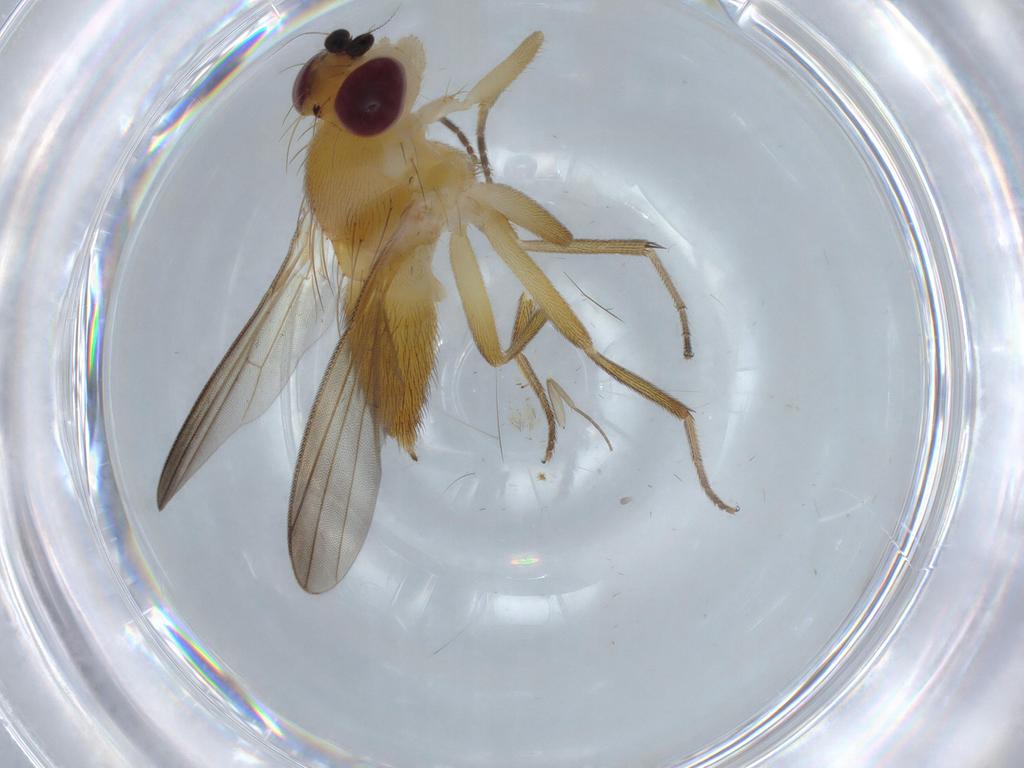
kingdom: Animalia
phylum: Arthropoda
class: Insecta
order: Diptera
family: Clusiidae
